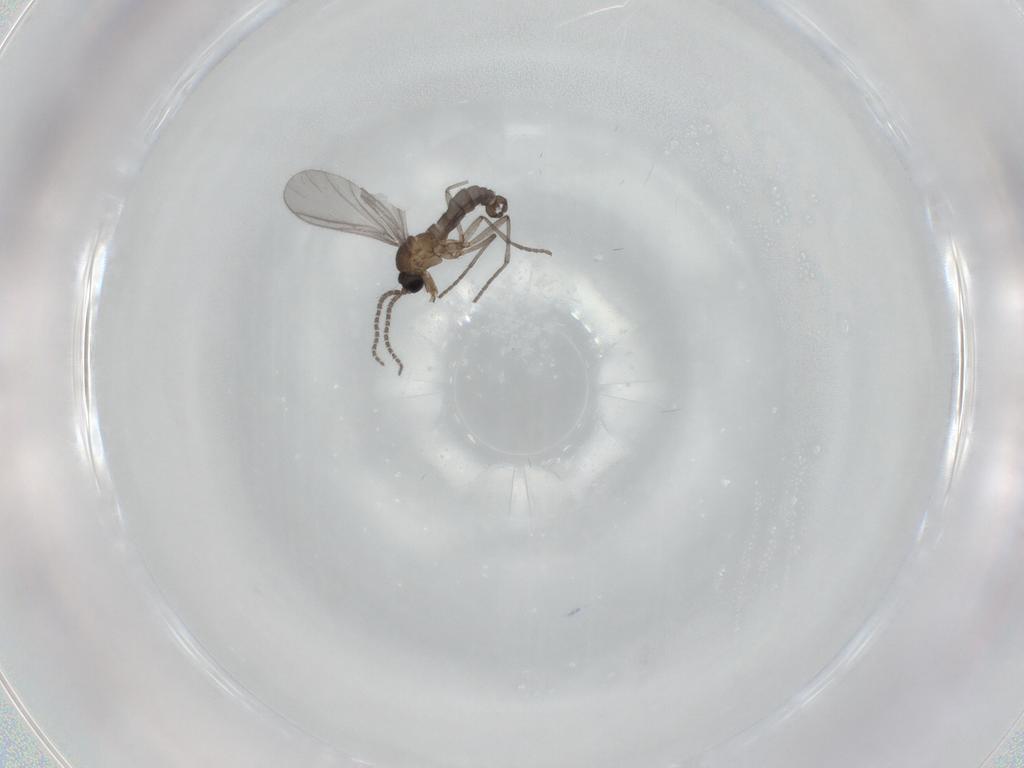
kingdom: Animalia
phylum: Arthropoda
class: Insecta
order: Diptera
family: Sciaridae
